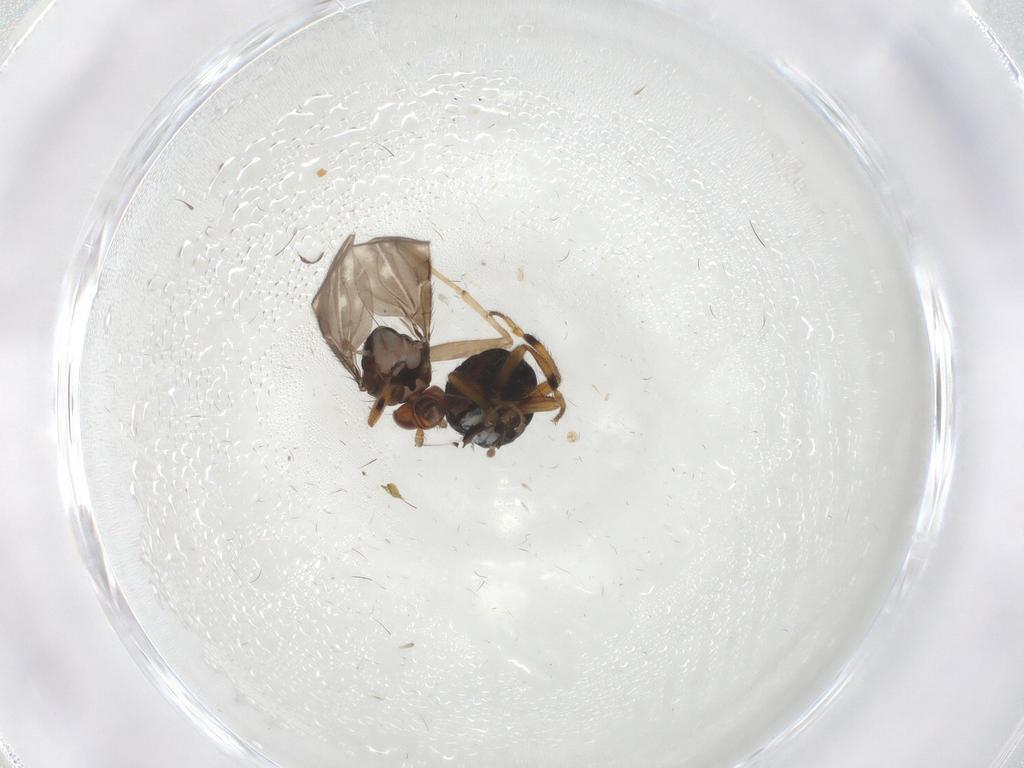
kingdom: Animalia
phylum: Arthropoda
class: Insecta
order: Diptera
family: Sphaeroceridae
